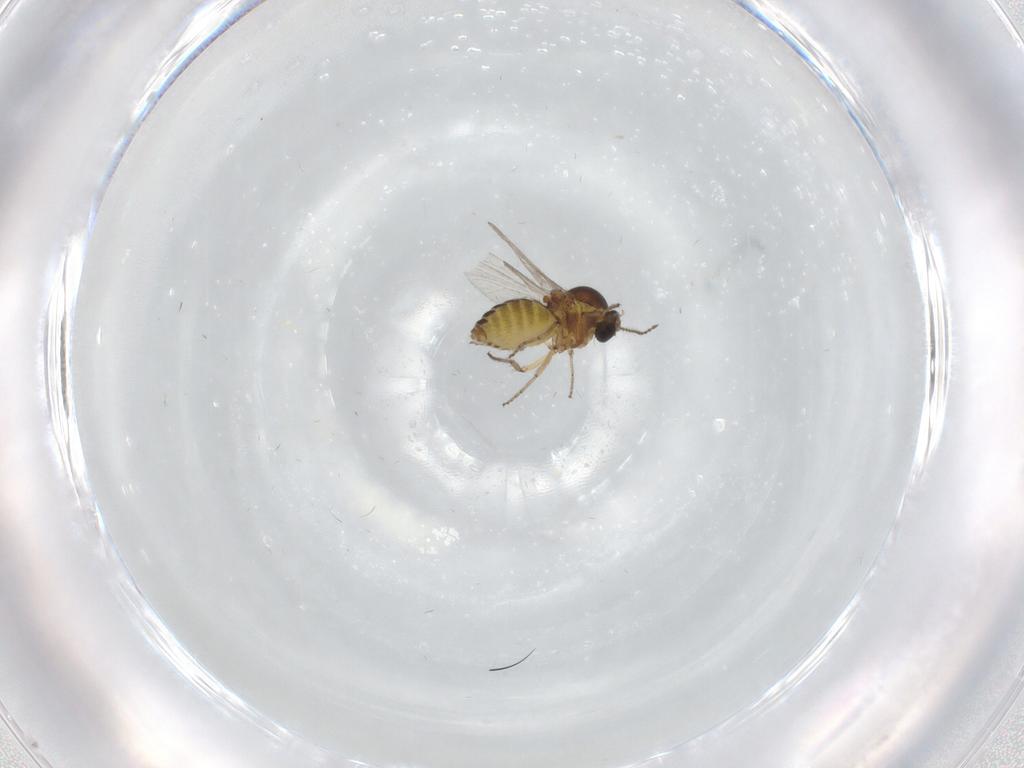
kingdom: Animalia
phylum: Arthropoda
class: Insecta
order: Diptera
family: Ceratopogonidae
